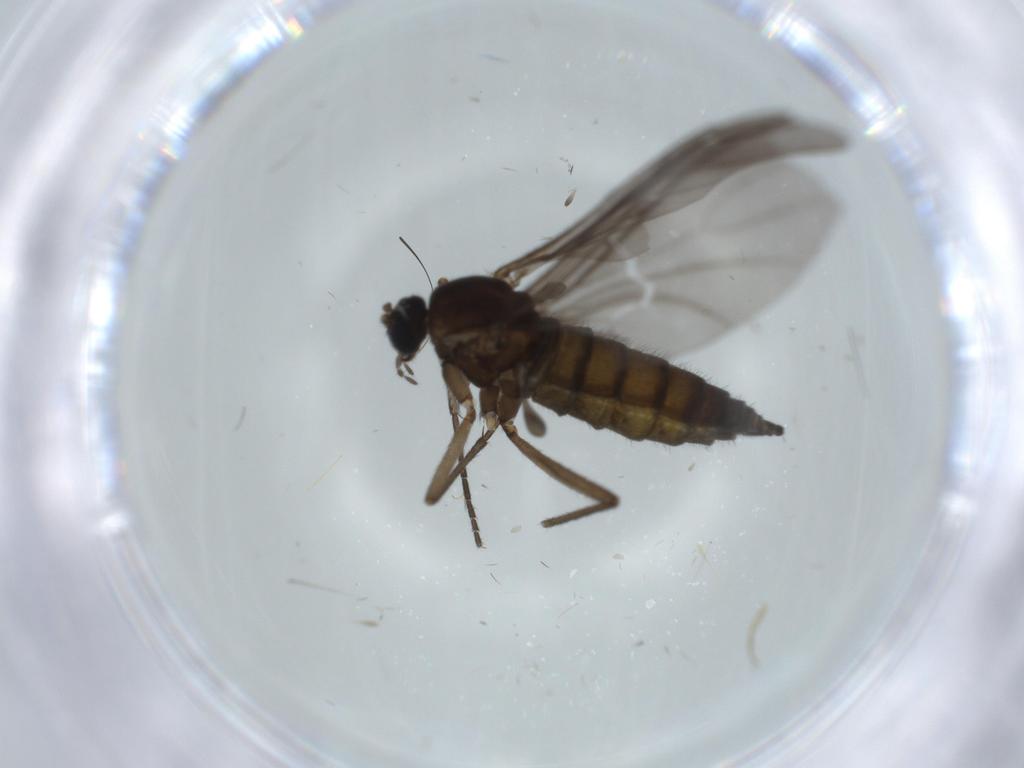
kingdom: Animalia
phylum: Arthropoda
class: Insecta
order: Diptera
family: Sciaridae
